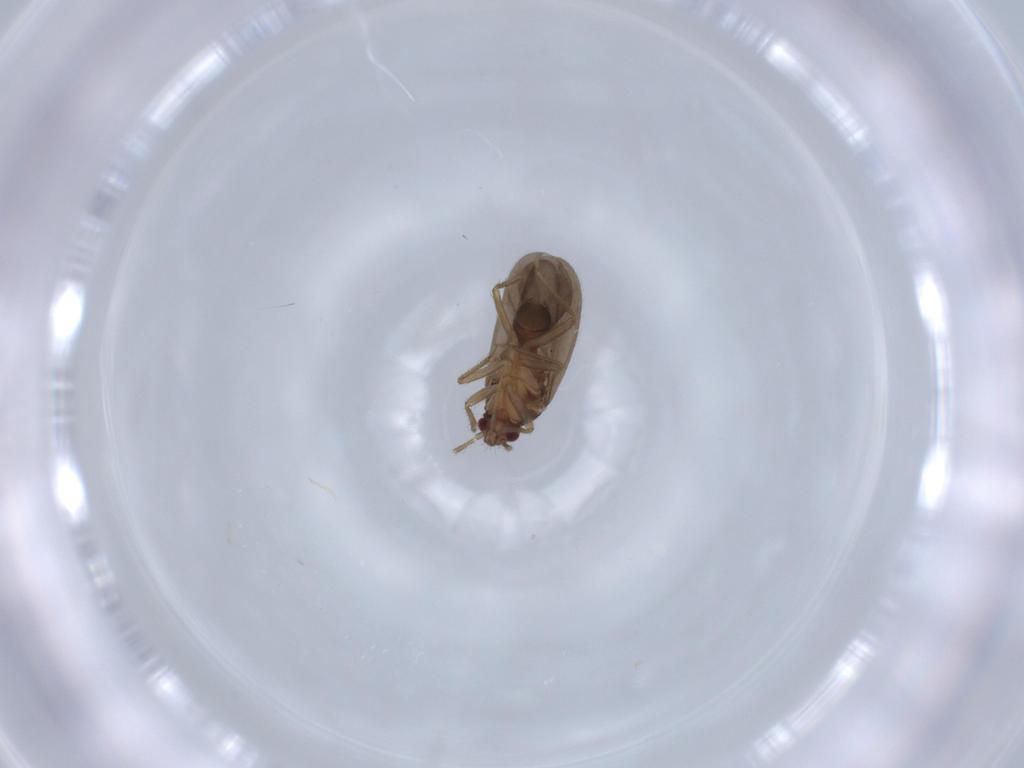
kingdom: Animalia
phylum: Arthropoda
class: Insecta
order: Hemiptera
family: Ceratocombidae
